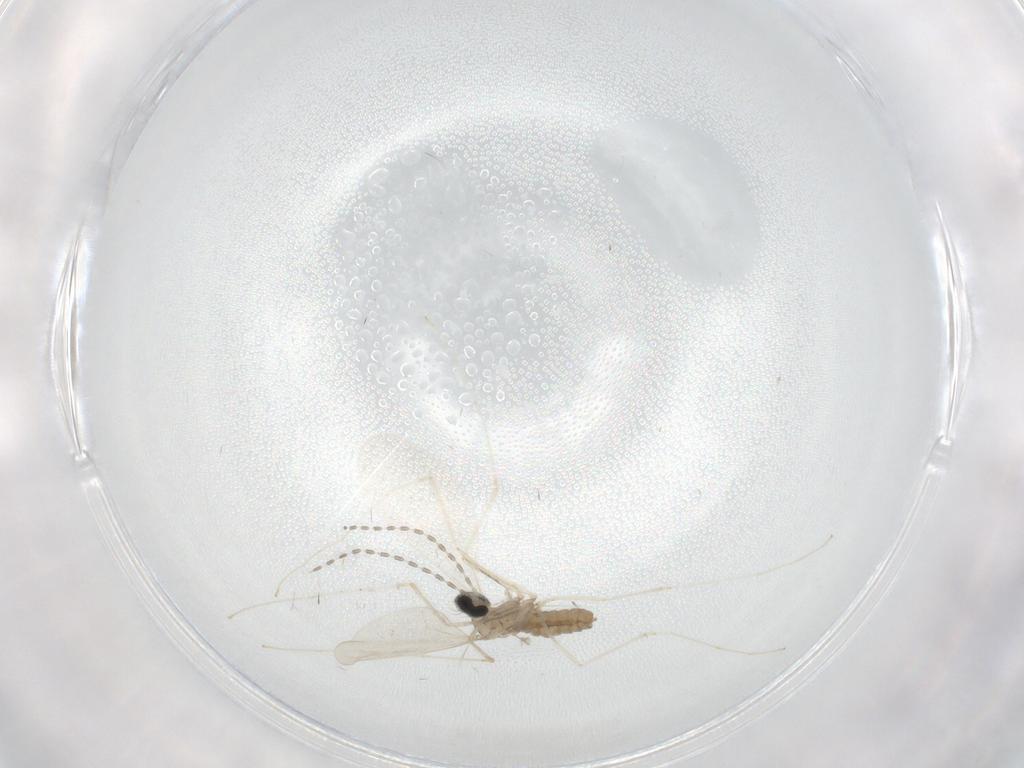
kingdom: Animalia
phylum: Arthropoda
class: Insecta
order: Diptera
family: Cecidomyiidae
